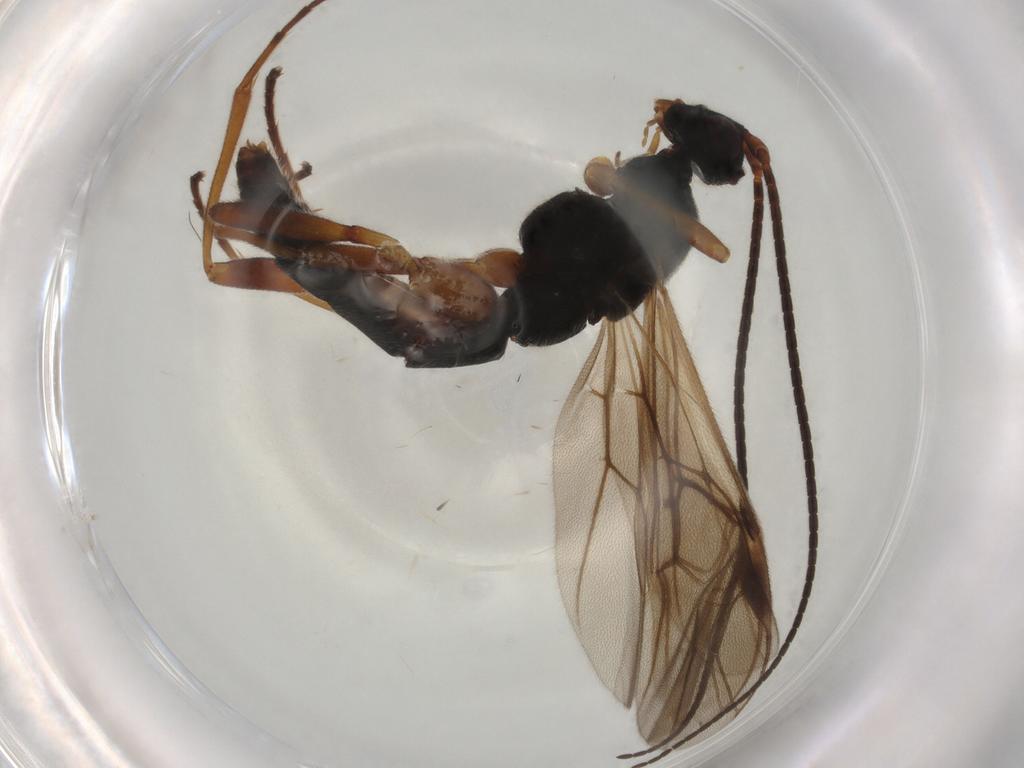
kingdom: Animalia
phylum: Arthropoda
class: Insecta
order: Hymenoptera
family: Braconidae
